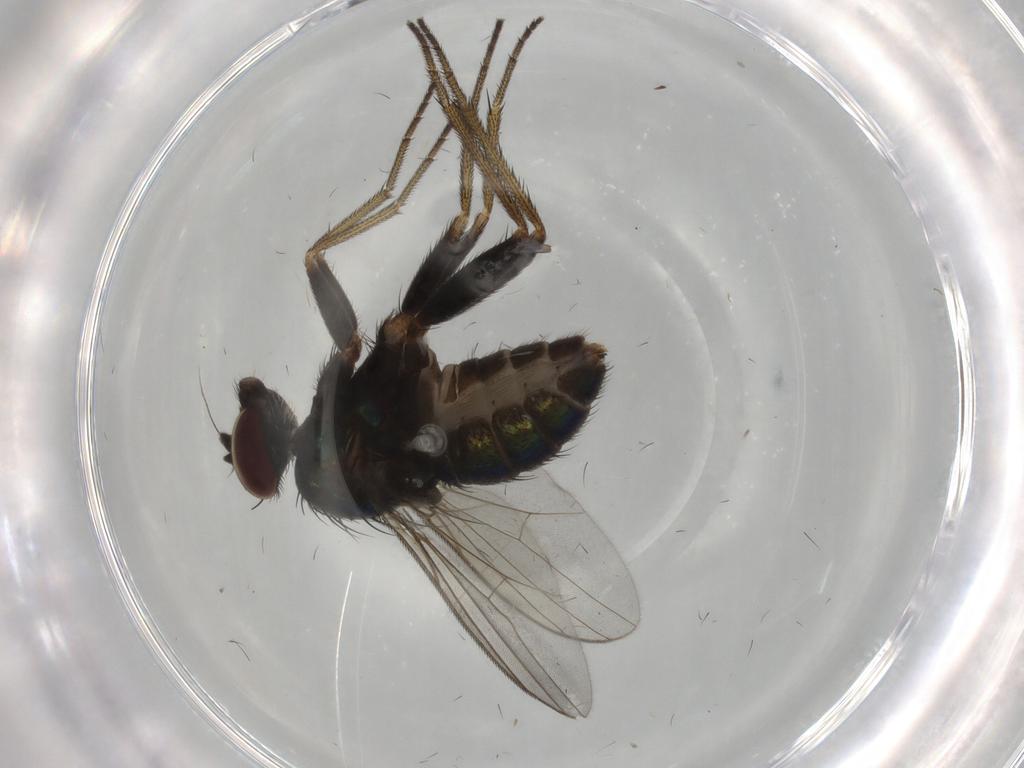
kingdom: Animalia
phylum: Arthropoda
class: Insecta
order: Diptera
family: Dolichopodidae
